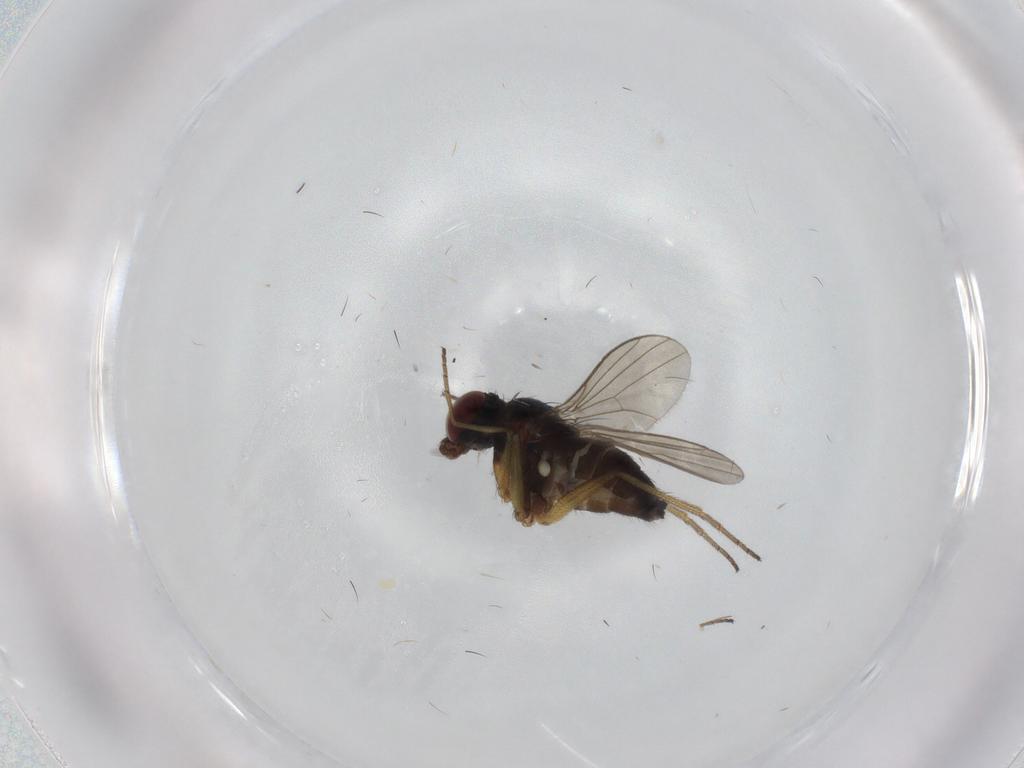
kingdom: Animalia
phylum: Arthropoda
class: Insecta
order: Diptera
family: Dolichopodidae
